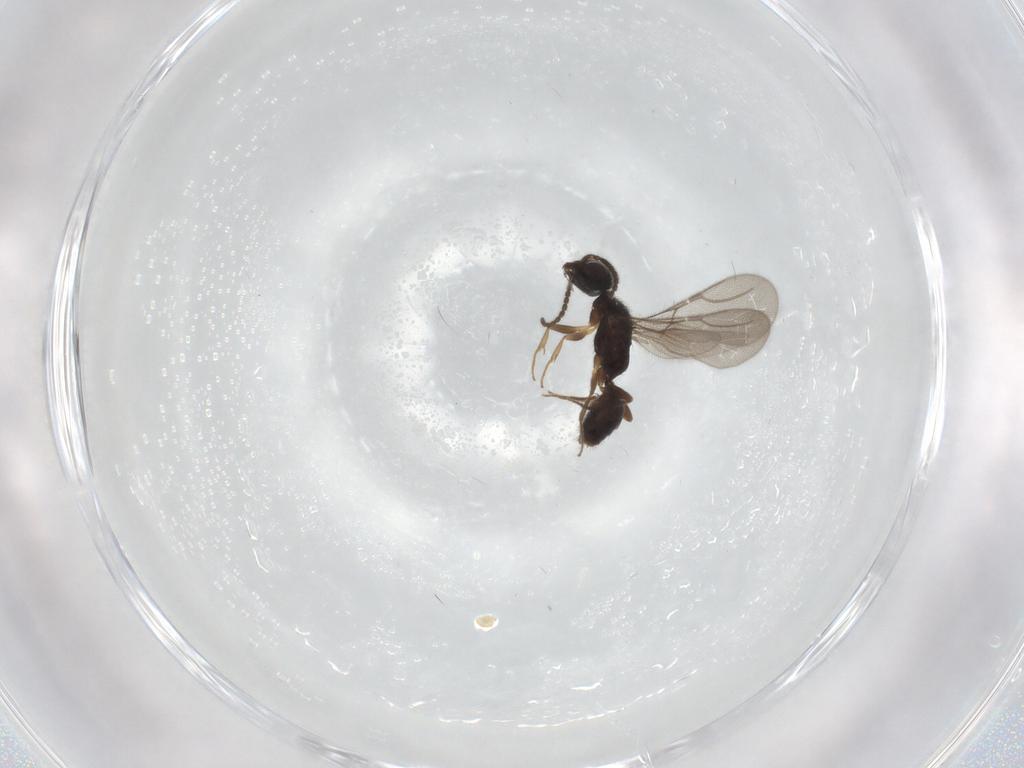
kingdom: Animalia
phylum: Arthropoda
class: Insecta
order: Hymenoptera
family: Bethylidae
